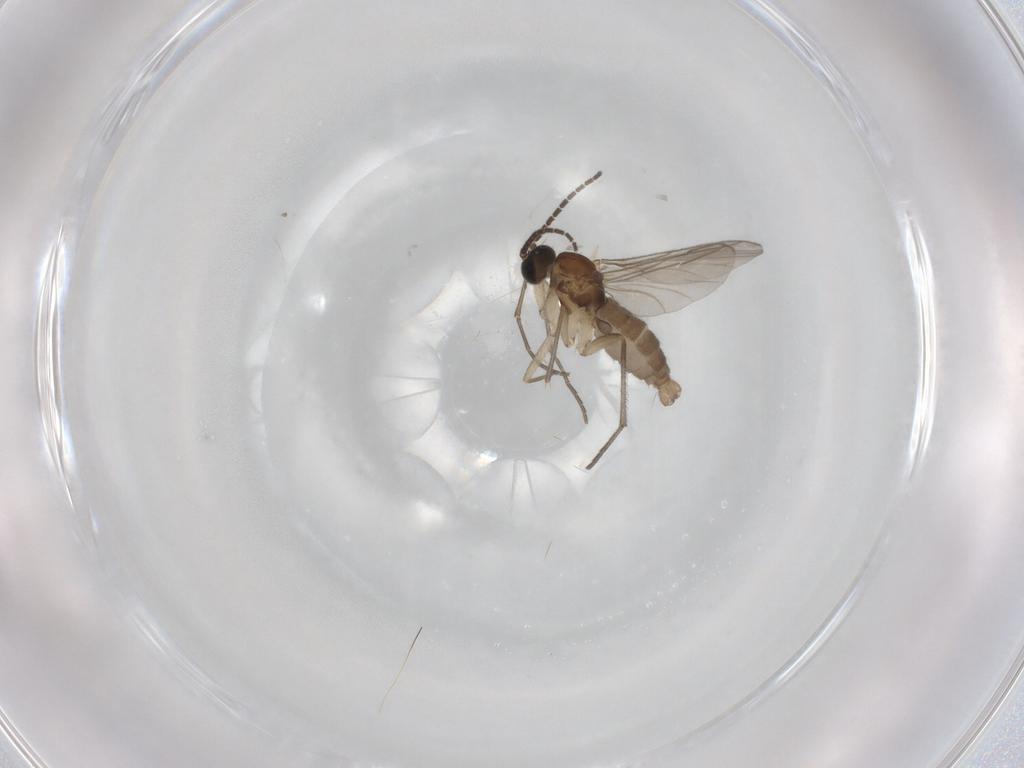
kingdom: Animalia
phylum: Arthropoda
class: Insecta
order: Diptera
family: Sciaridae
